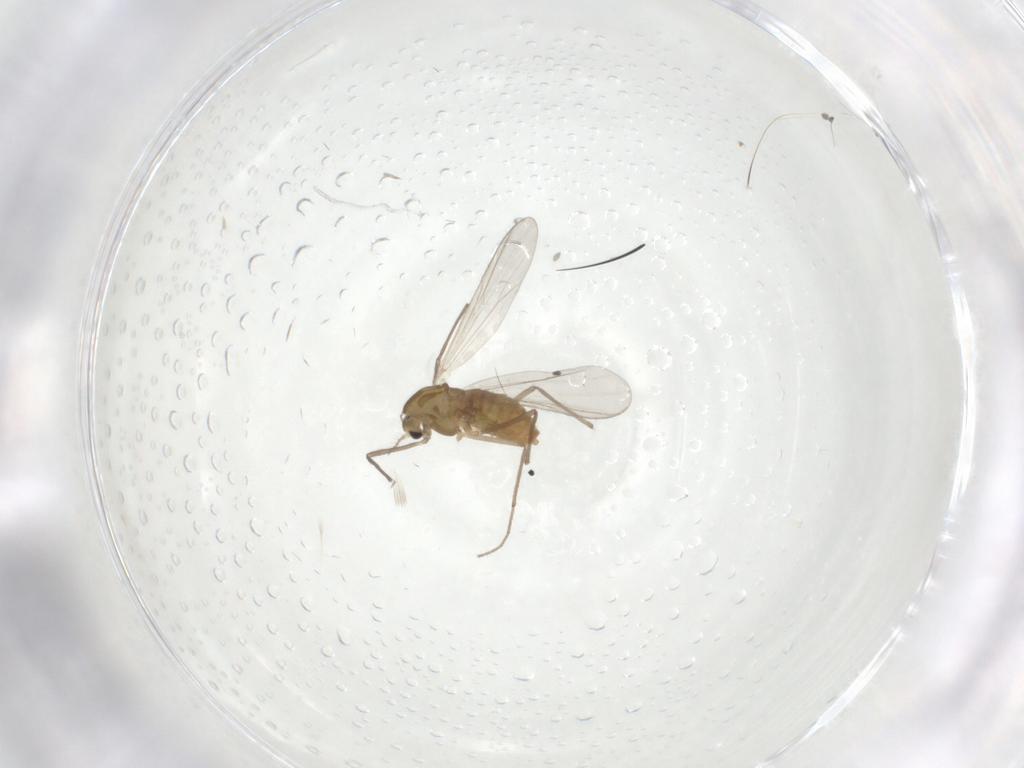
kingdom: Animalia
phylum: Arthropoda
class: Insecta
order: Diptera
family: Chironomidae
